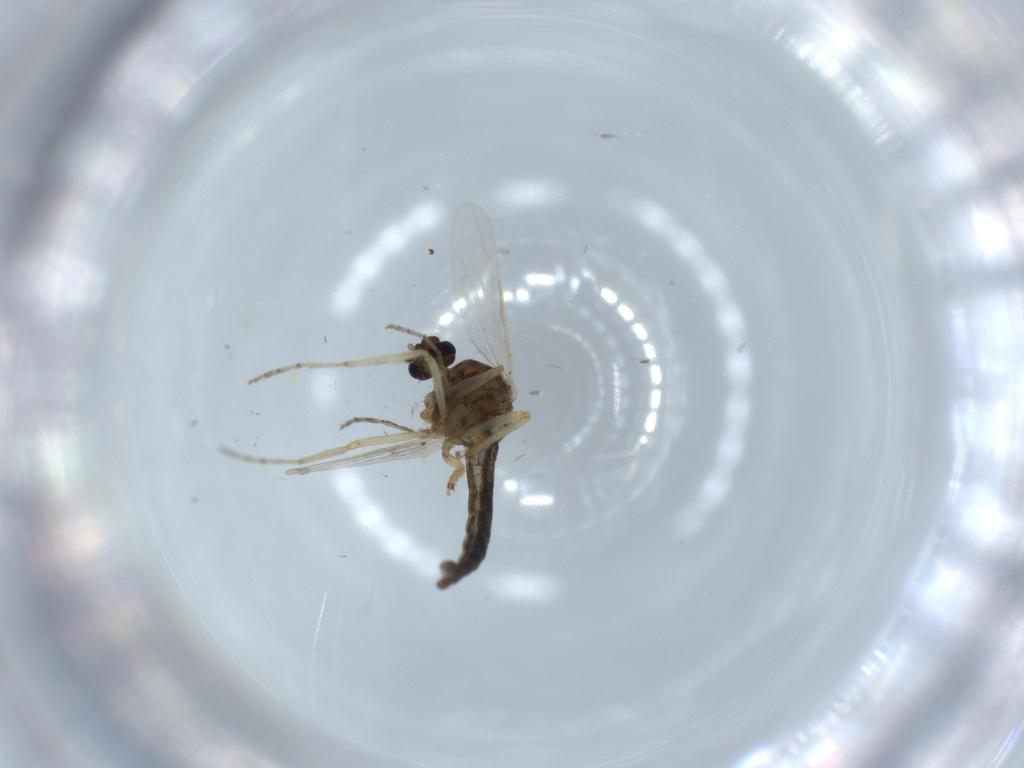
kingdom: Animalia
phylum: Arthropoda
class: Insecta
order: Diptera
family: Ceratopogonidae
